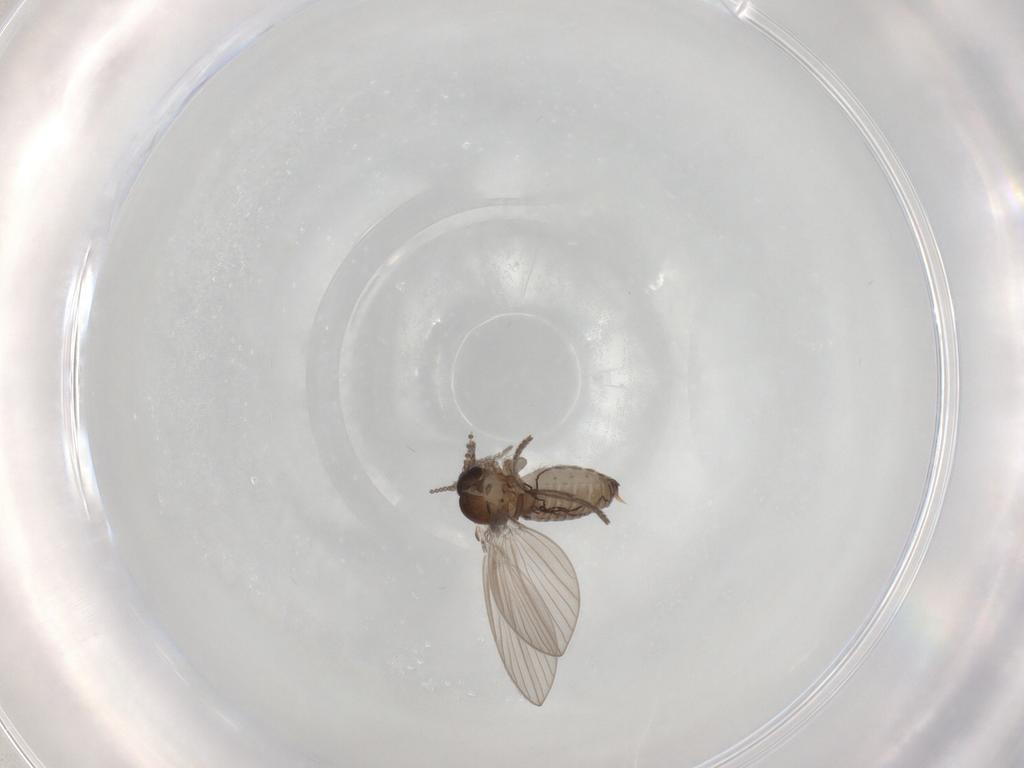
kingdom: Animalia
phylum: Arthropoda
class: Insecta
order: Diptera
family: Psychodidae
